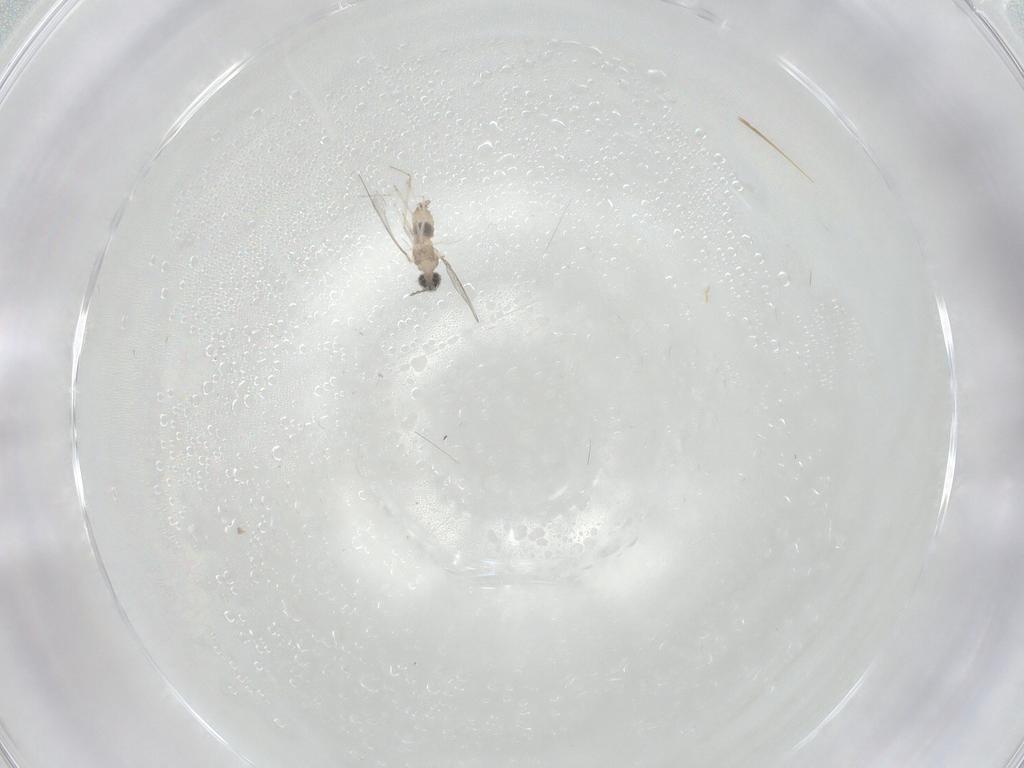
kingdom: Animalia
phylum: Arthropoda
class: Insecta
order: Diptera
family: Cecidomyiidae
